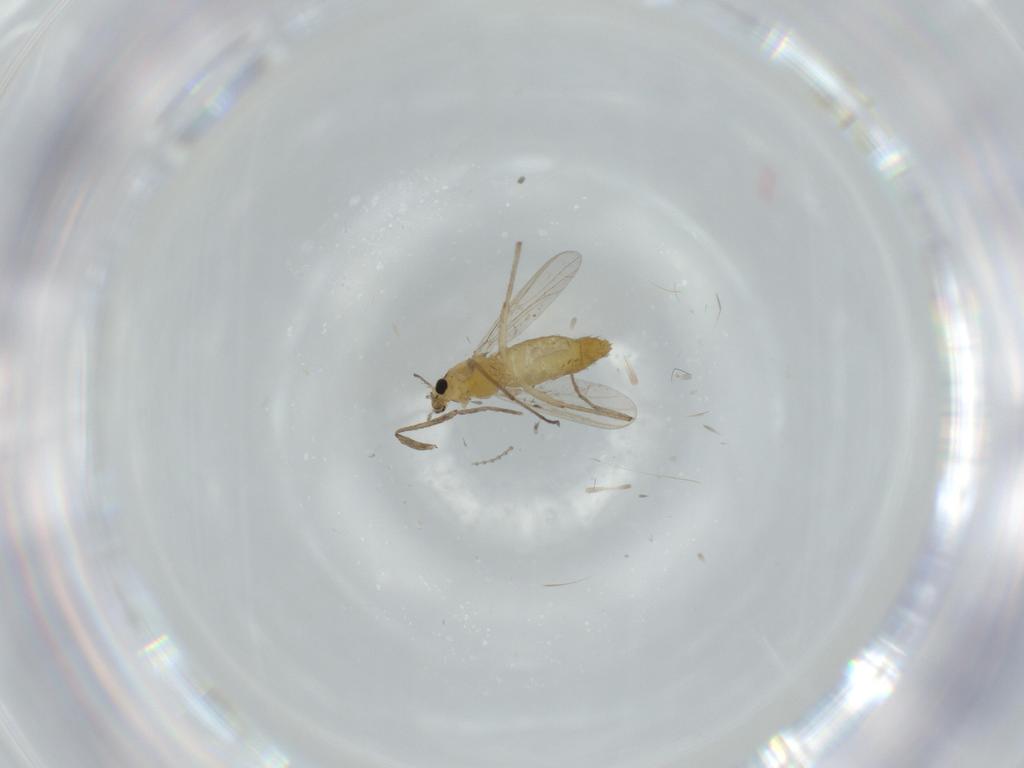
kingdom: Animalia
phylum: Arthropoda
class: Insecta
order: Diptera
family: Chironomidae
